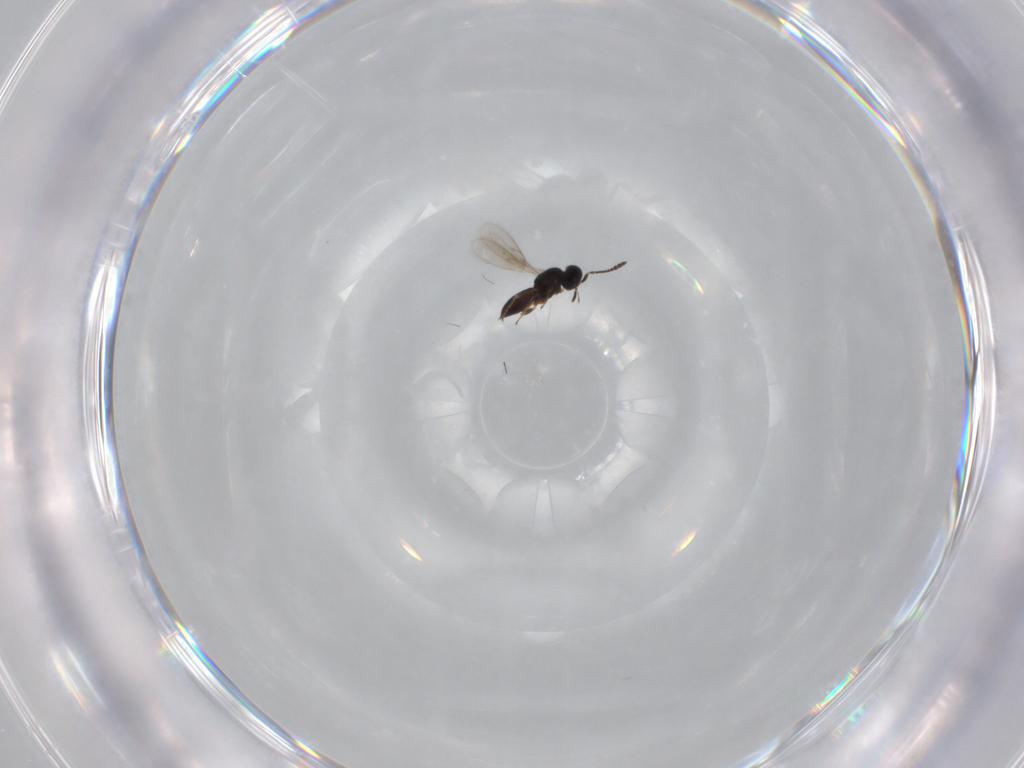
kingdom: Animalia
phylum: Arthropoda
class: Insecta
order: Hymenoptera
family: Scelionidae
